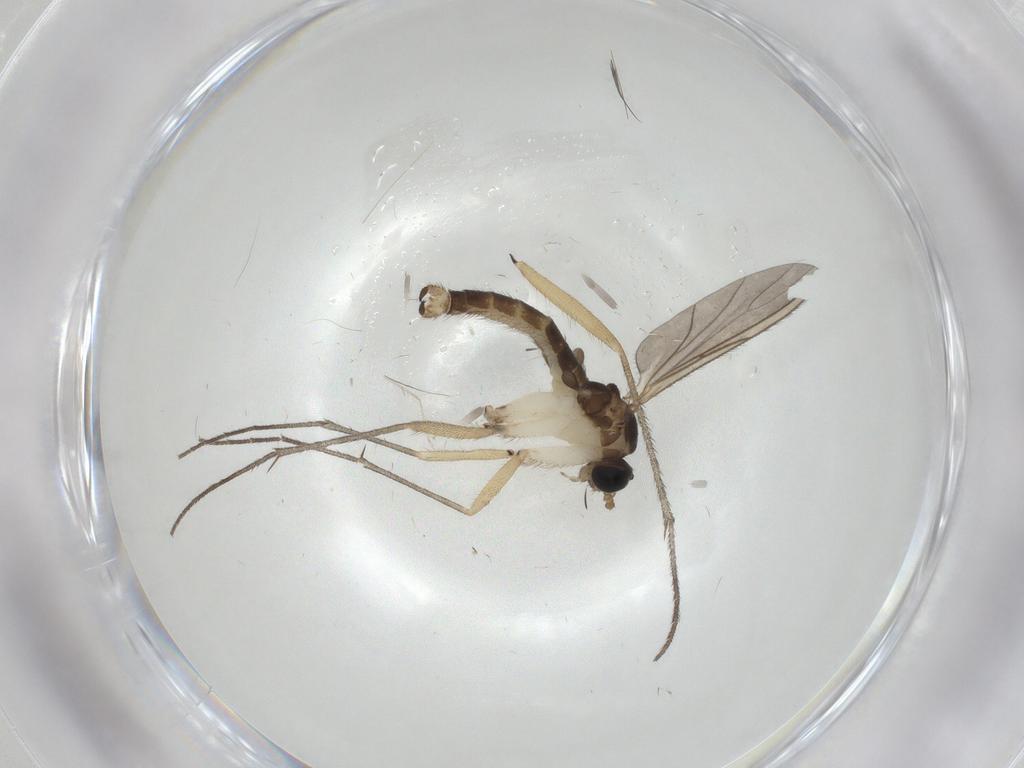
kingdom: Animalia
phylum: Arthropoda
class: Insecta
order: Diptera
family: Sciaridae
